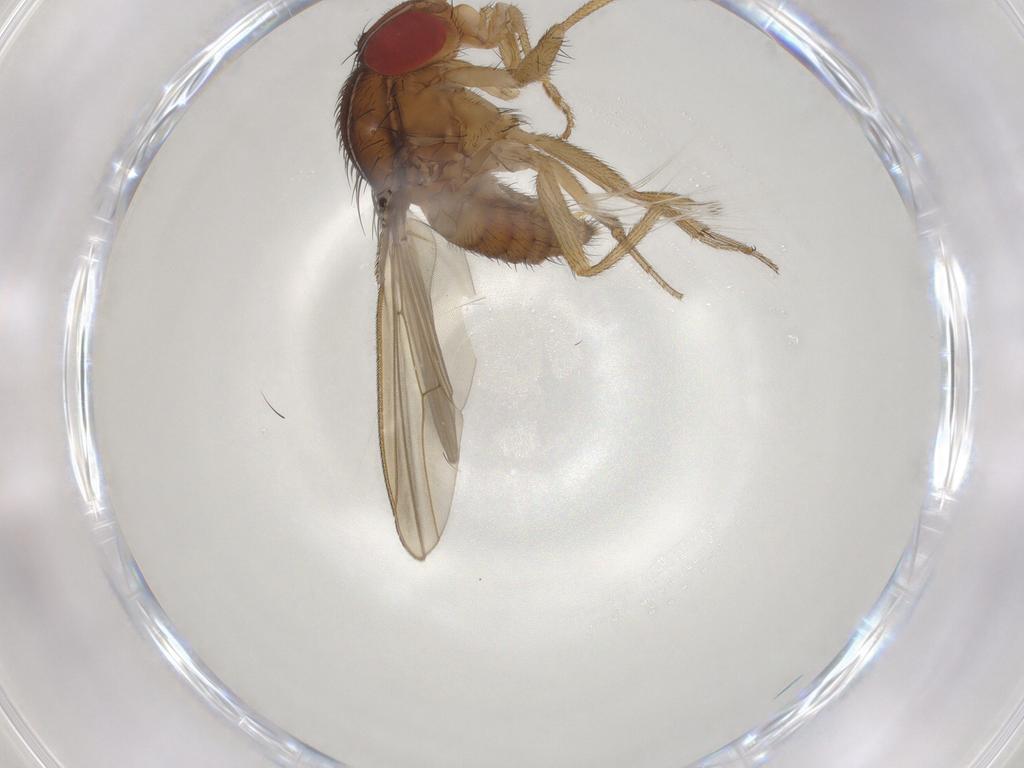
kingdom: Animalia
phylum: Arthropoda
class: Insecta
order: Diptera
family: Drosophilidae
